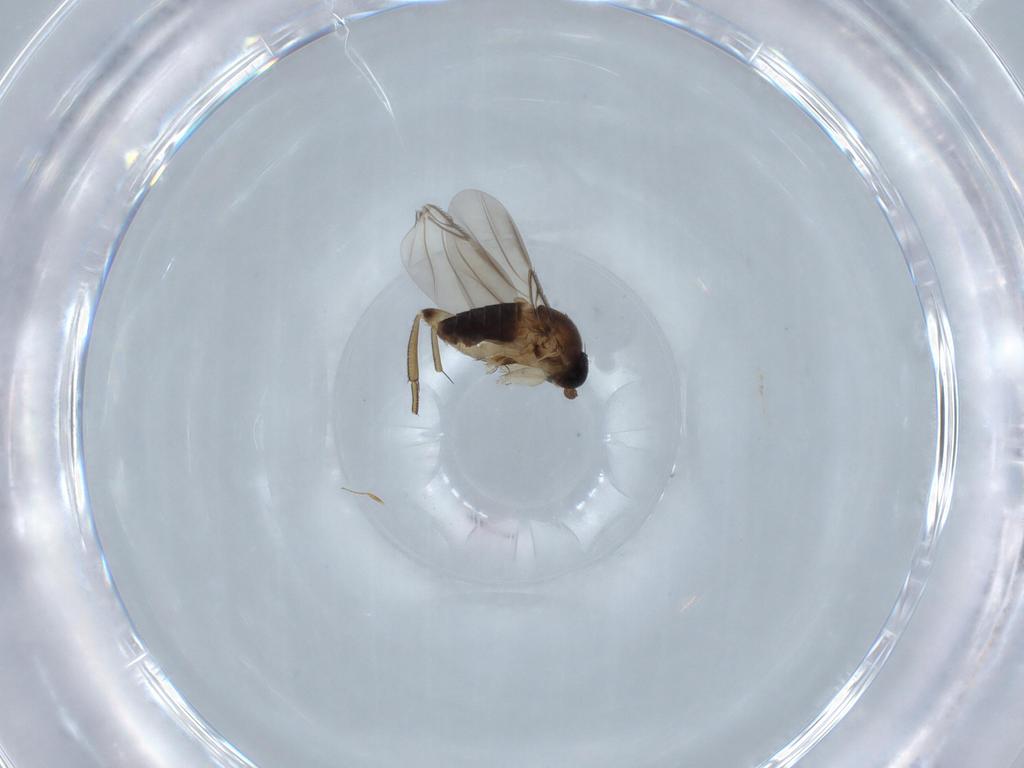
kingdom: Animalia
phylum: Arthropoda
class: Insecta
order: Diptera
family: Phoridae
